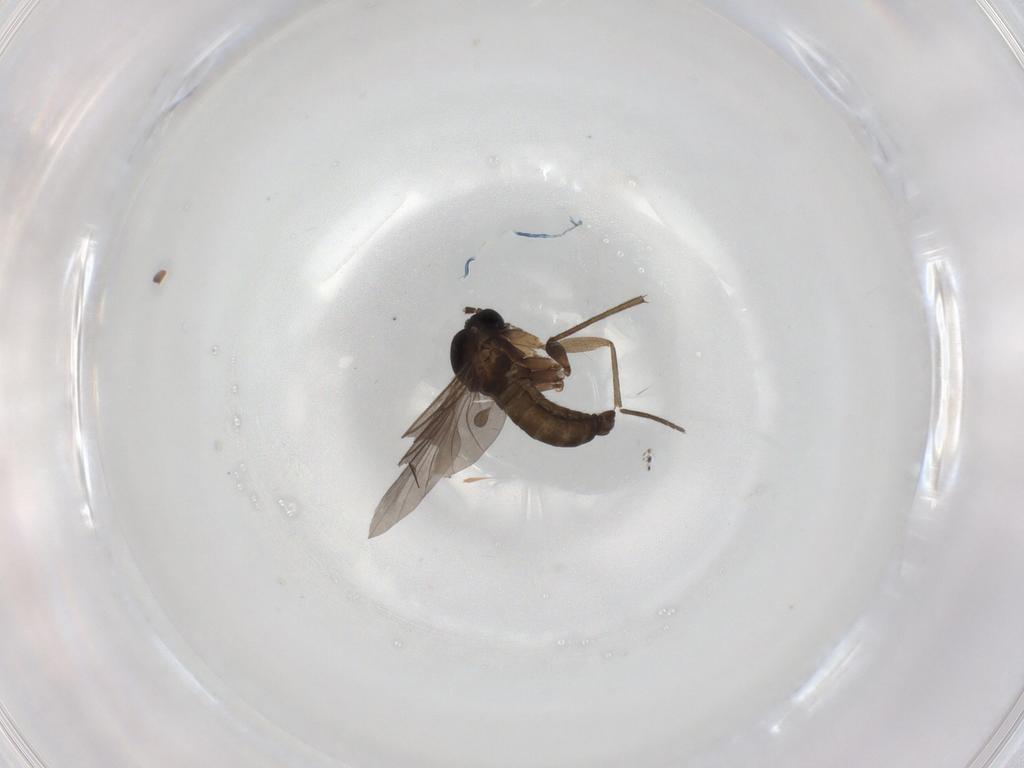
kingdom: Animalia
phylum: Arthropoda
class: Insecta
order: Diptera
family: Sciaridae
